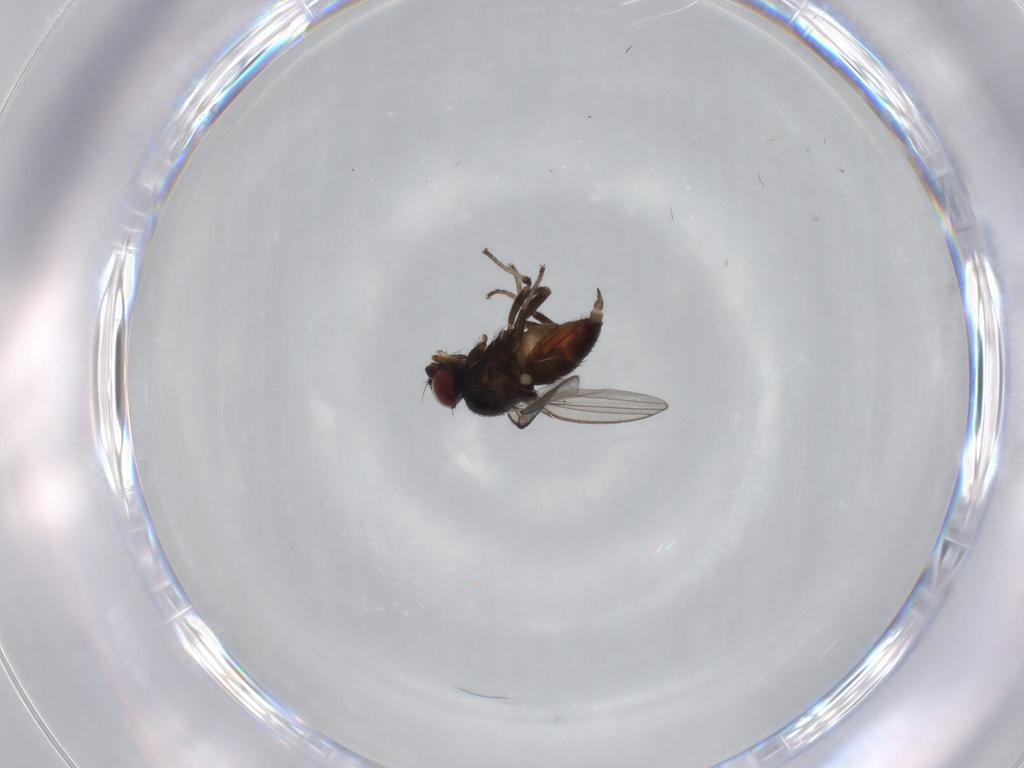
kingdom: Animalia
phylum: Arthropoda
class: Insecta
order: Diptera
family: Milichiidae
